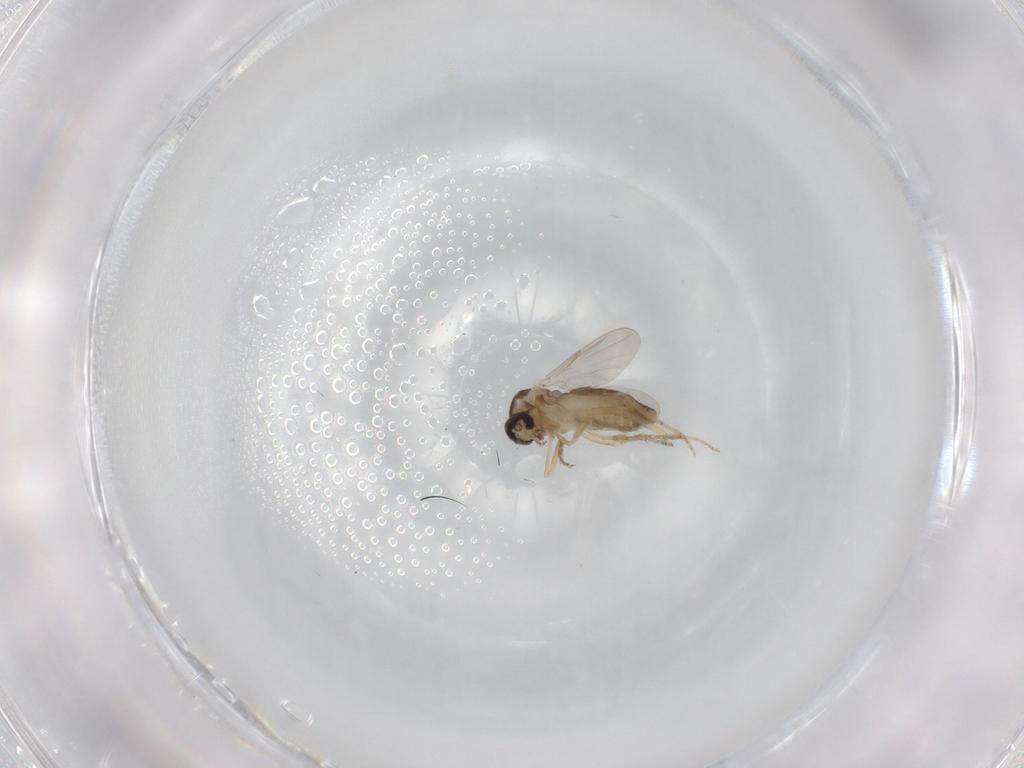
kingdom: Animalia
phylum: Arthropoda
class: Insecta
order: Diptera
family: Ceratopogonidae
